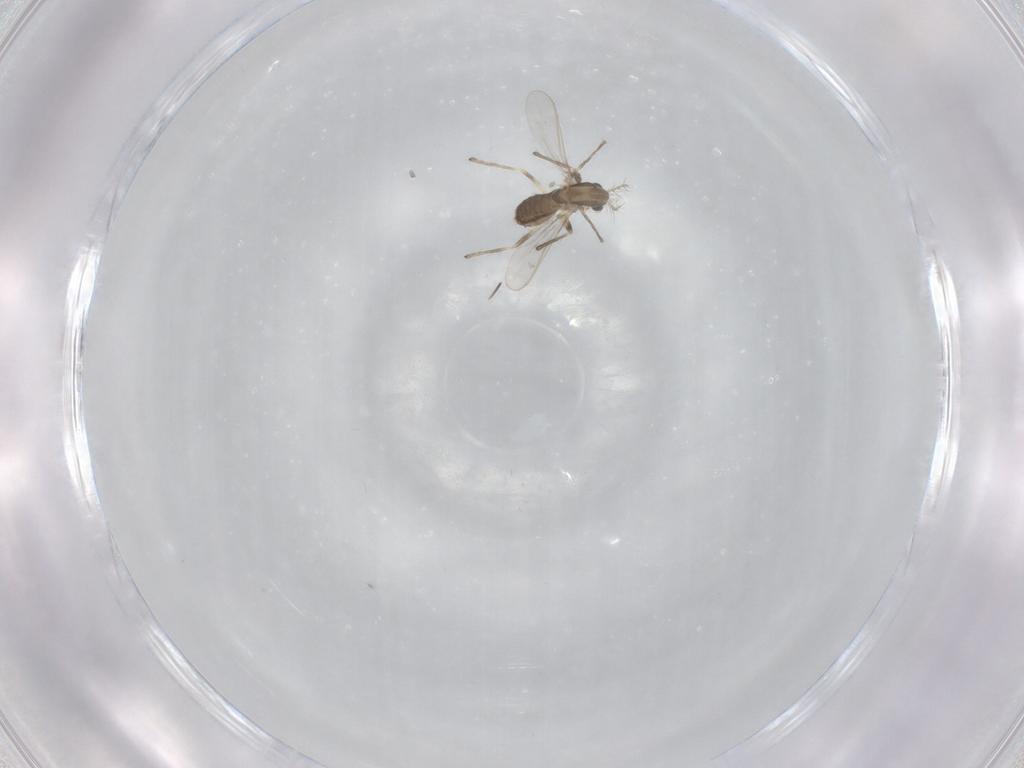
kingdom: Animalia
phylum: Arthropoda
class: Insecta
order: Diptera
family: Chironomidae
